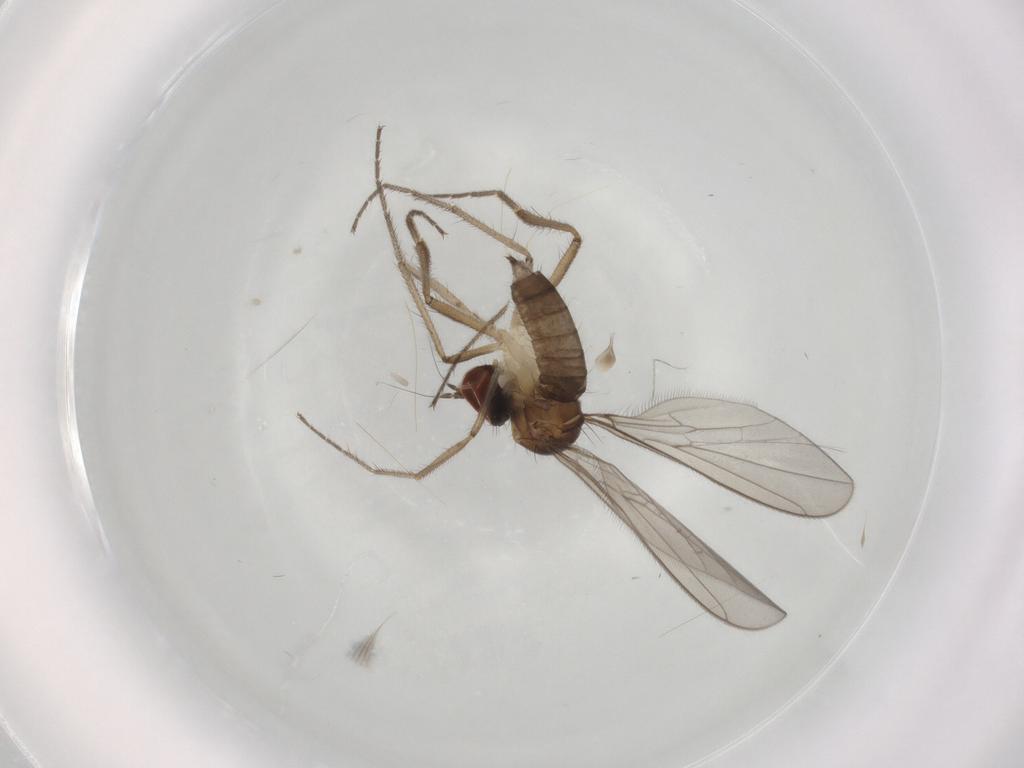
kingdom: Animalia
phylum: Arthropoda
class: Insecta
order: Diptera
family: Hybotidae
